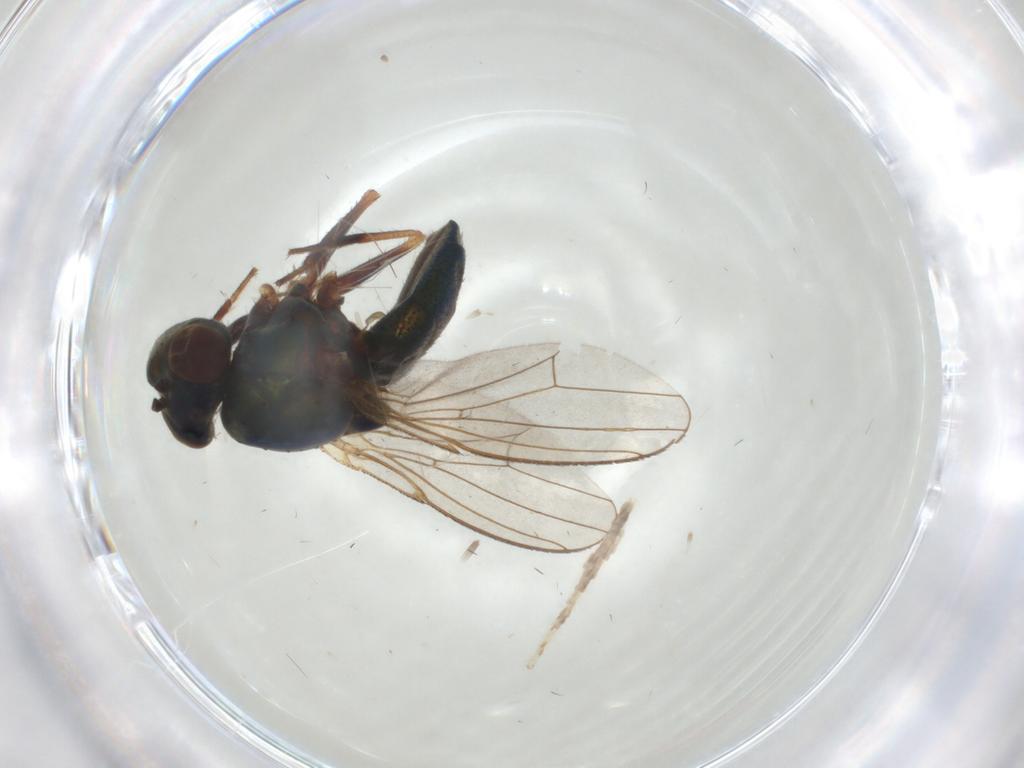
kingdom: Animalia
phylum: Arthropoda
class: Insecta
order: Diptera
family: Ephydridae
